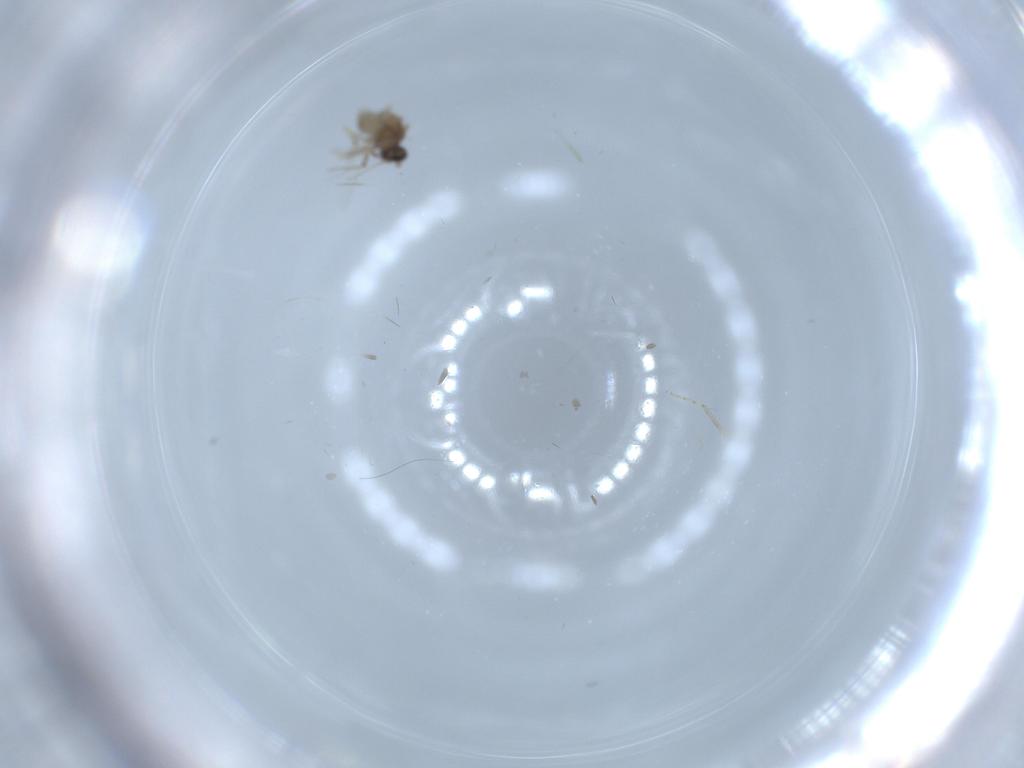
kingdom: Animalia
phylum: Arthropoda
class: Insecta
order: Diptera
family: Ceratopogonidae
